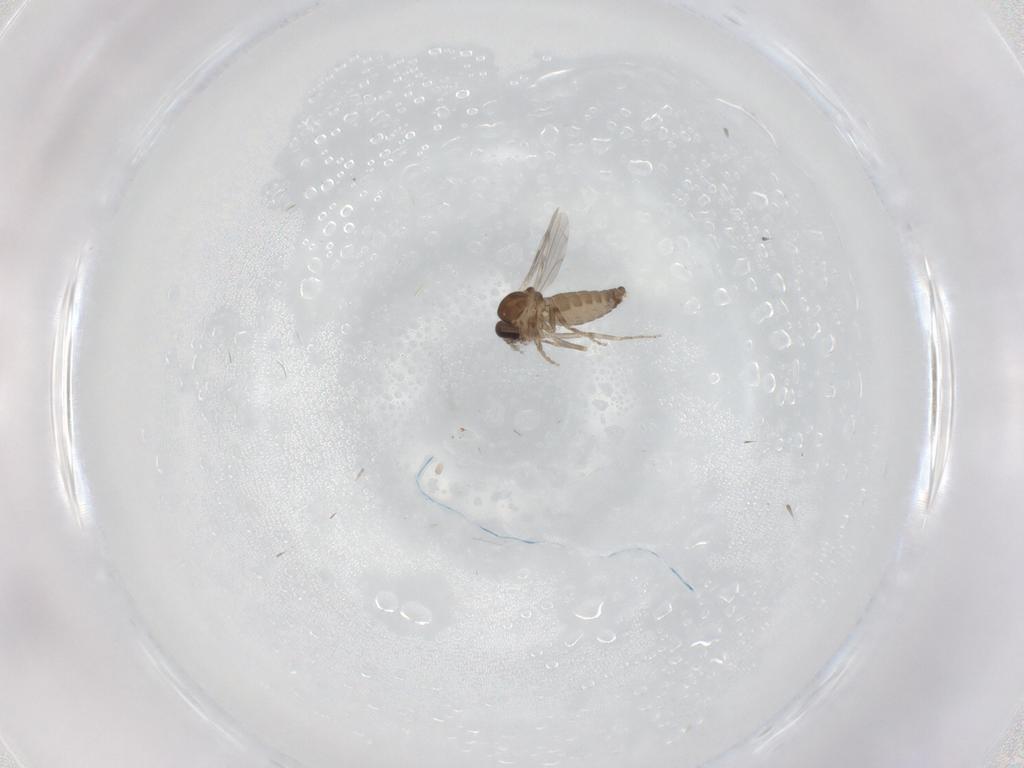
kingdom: Animalia
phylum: Arthropoda
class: Insecta
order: Diptera
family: Ceratopogonidae
